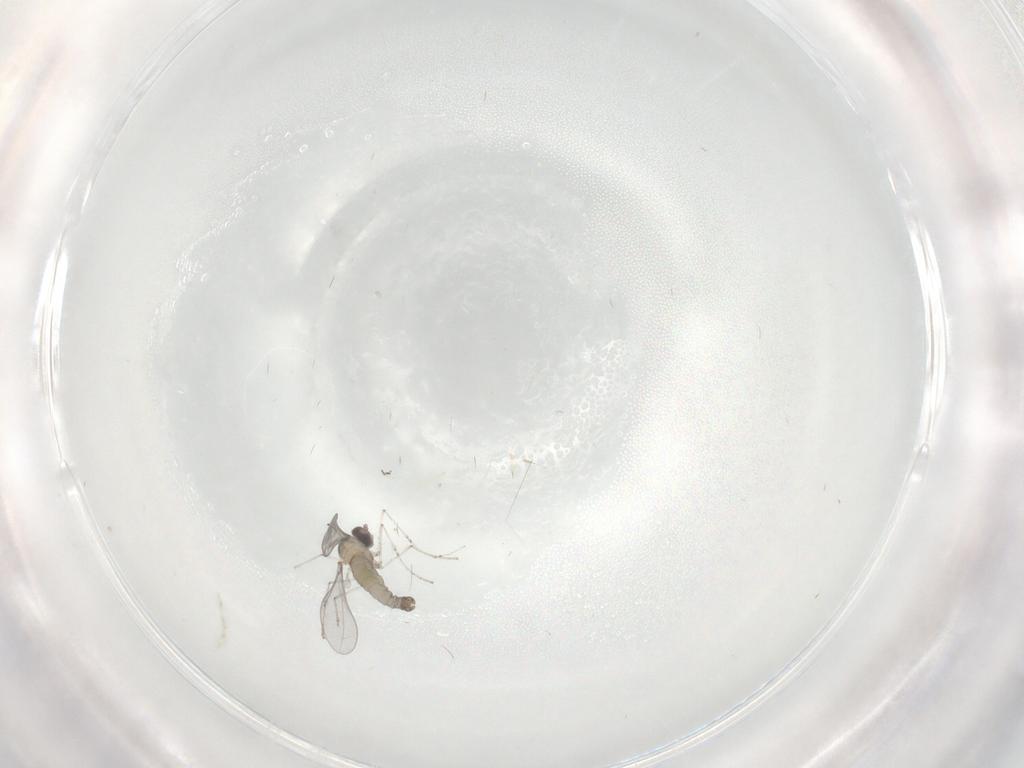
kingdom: Animalia
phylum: Arthropoda
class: Insecta
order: Diptera
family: Cecidomyiidae
